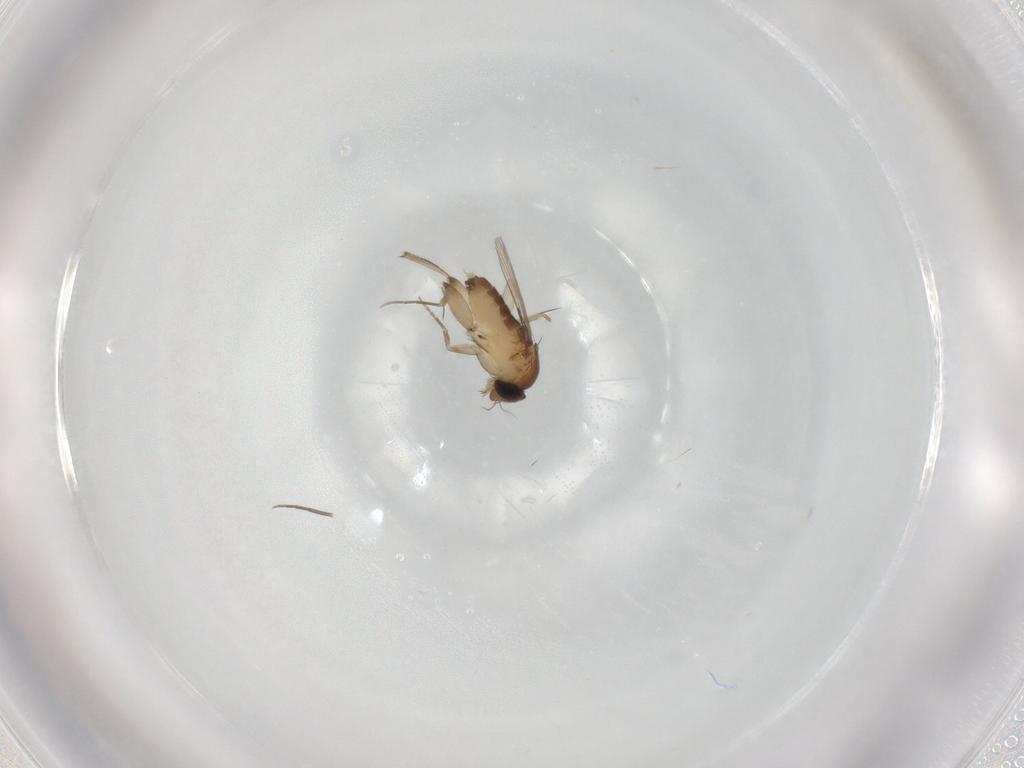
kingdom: Animalia
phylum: Arthropoda
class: Insecta
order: Diptera
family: Phoridae
